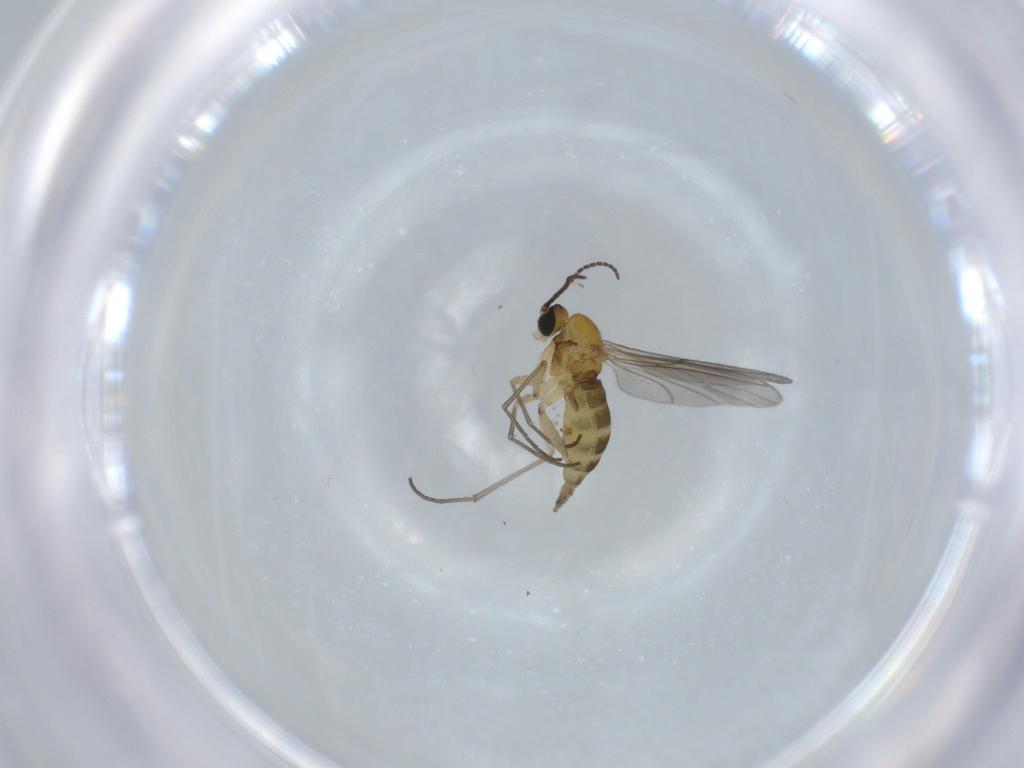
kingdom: Animalia
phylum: Arthropoda
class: Insecta
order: Diptera
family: Sciaridae
